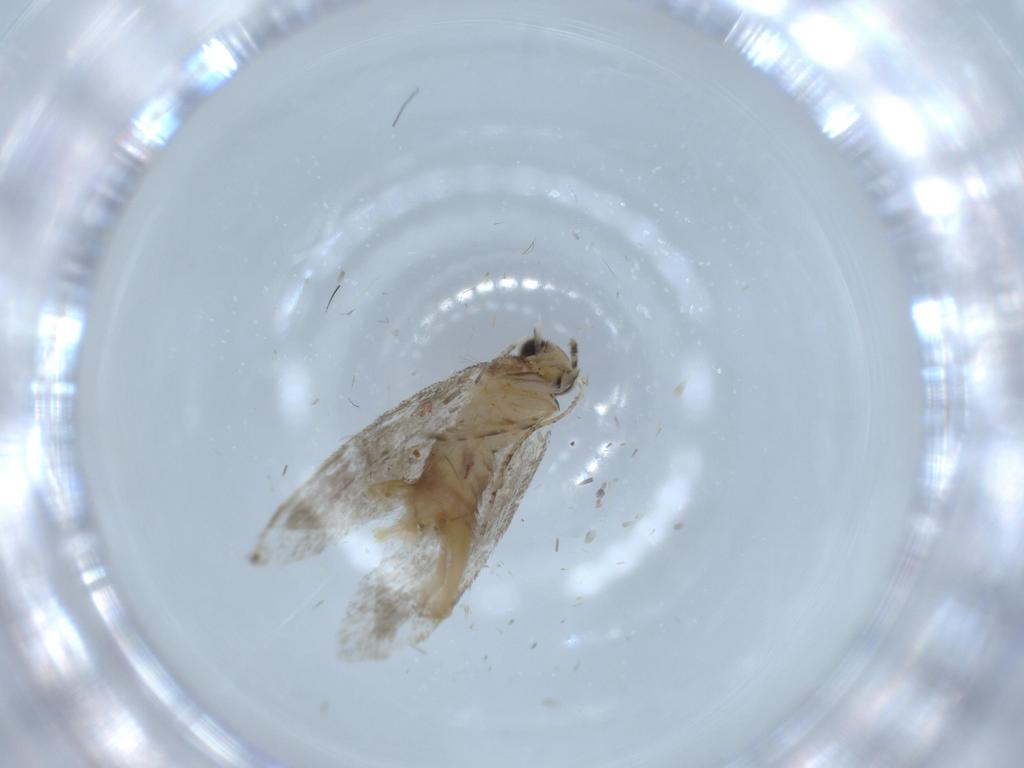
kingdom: Animalia
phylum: Arthropoda
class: Insecta
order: Lepidoptera
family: Tineidae
